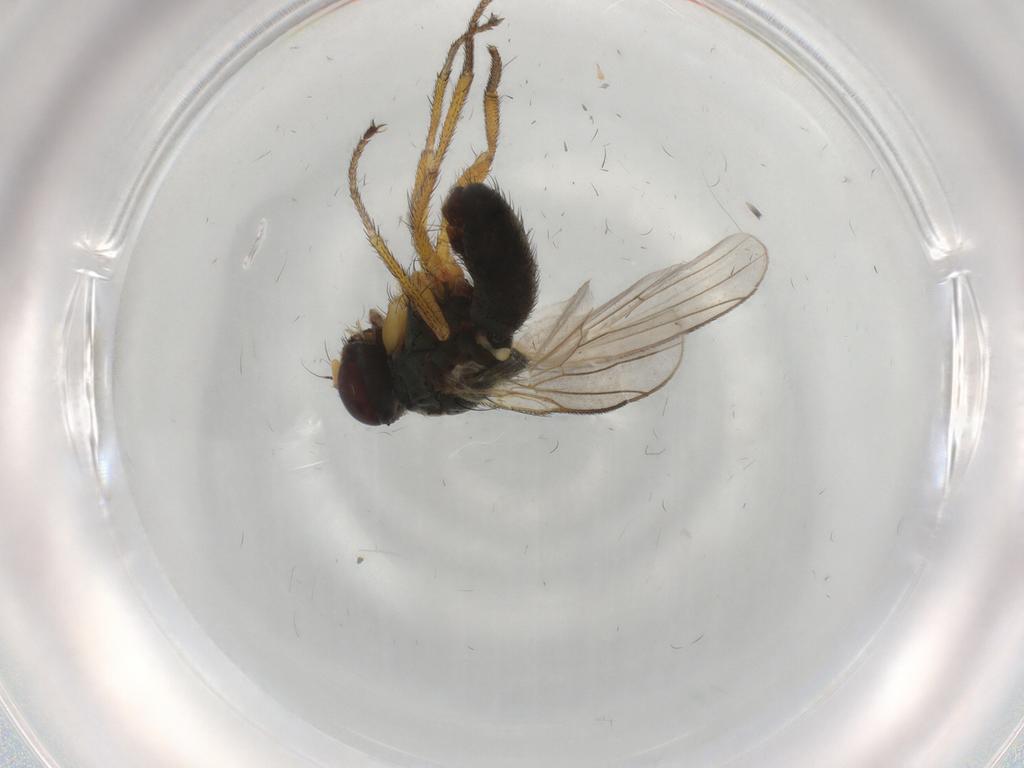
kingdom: Animalia
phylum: Arthropoda
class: Insecta
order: Diptera
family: Muscidae
